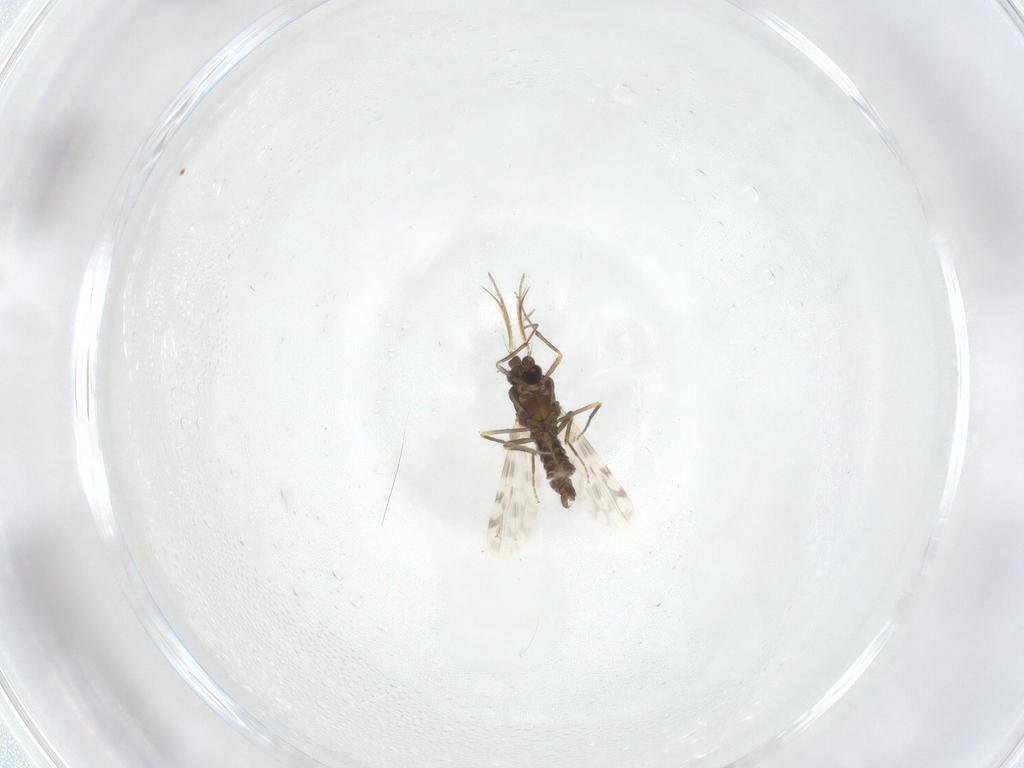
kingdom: Animalia
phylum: Arthropoda
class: Insecta
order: Diptera
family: Ceratopogonidae
